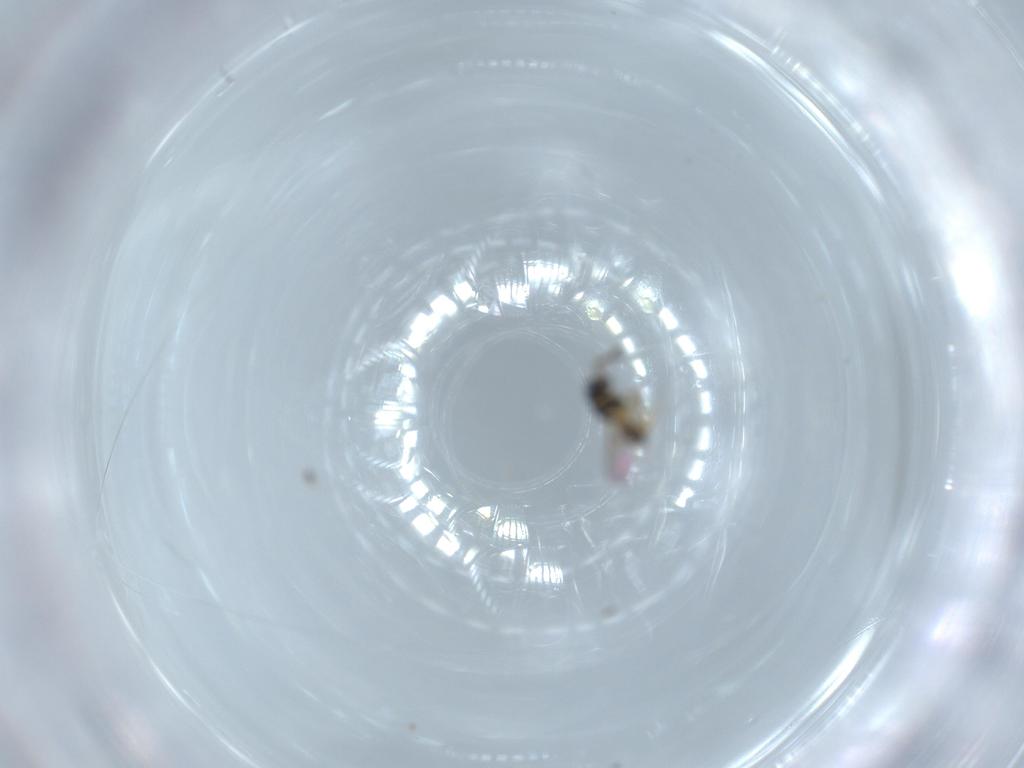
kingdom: Animalia
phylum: Arthropoda
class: Insecta
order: Hymenoptera
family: Scelionidae
